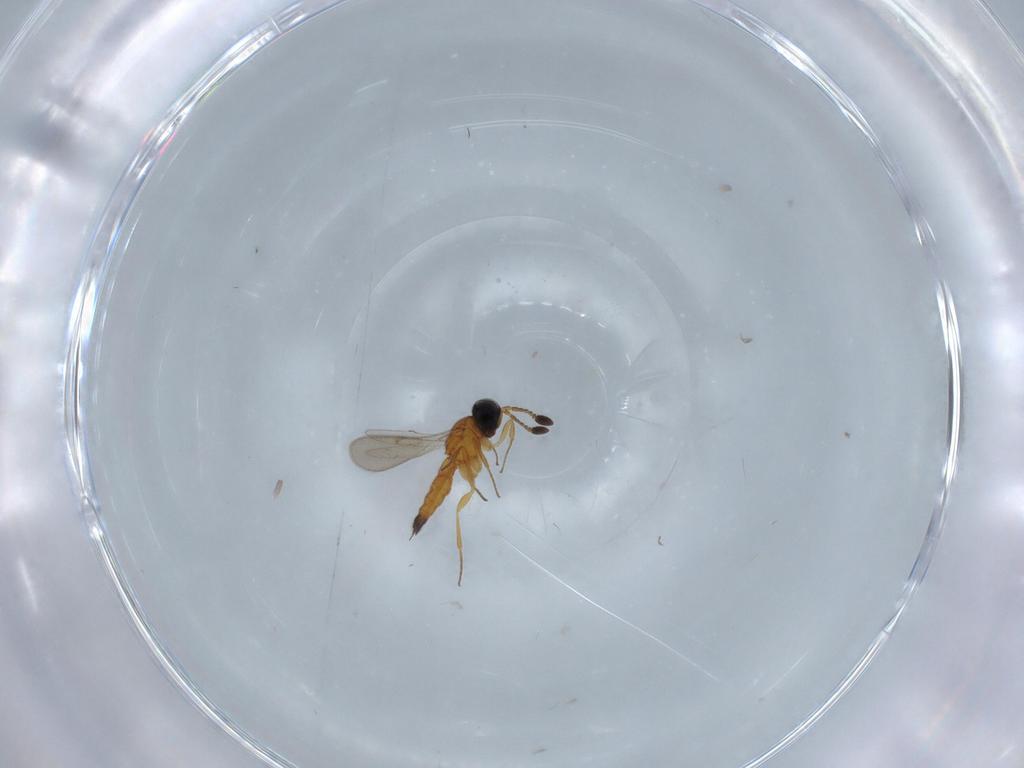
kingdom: Animalia
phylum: Arthropoda
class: Insecta
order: Hymenoptera
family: Scelionidae
